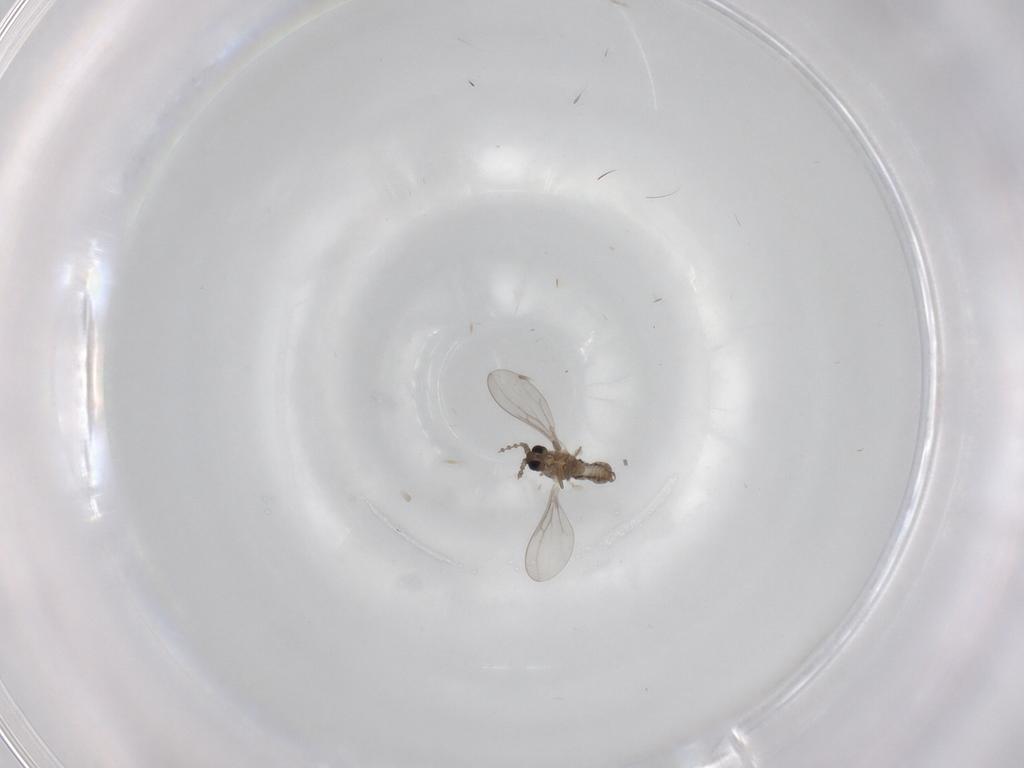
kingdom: Animalia
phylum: Arthropoda
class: Insecta
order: Diptera
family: Cecidomyiidae
